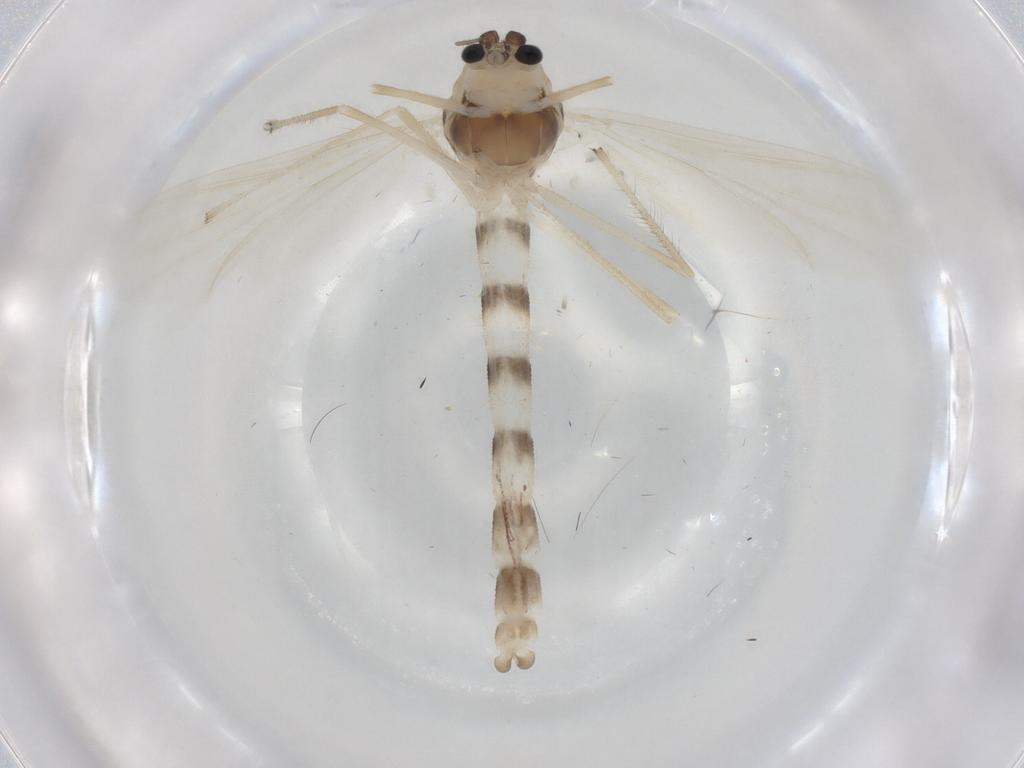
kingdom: Animalia
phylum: Arthropoda
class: Insecta
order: Diptera
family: Chironomidae
